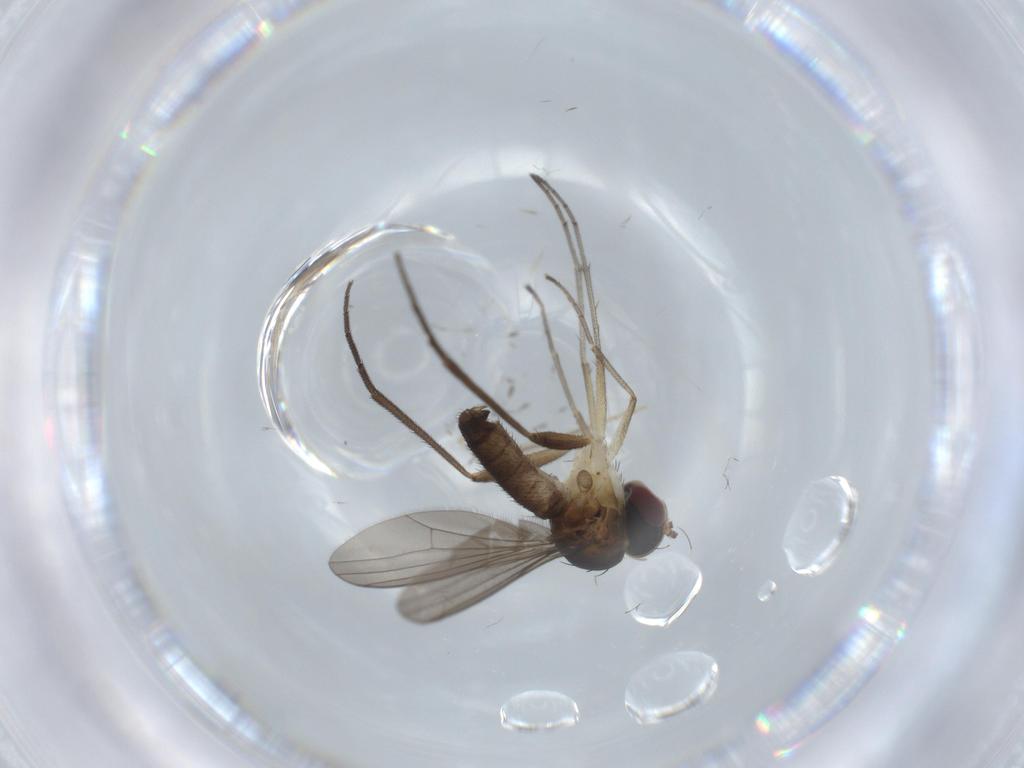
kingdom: Animalia
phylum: Arthropoda
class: Insecta
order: Diptera
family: Dolichopodidae
